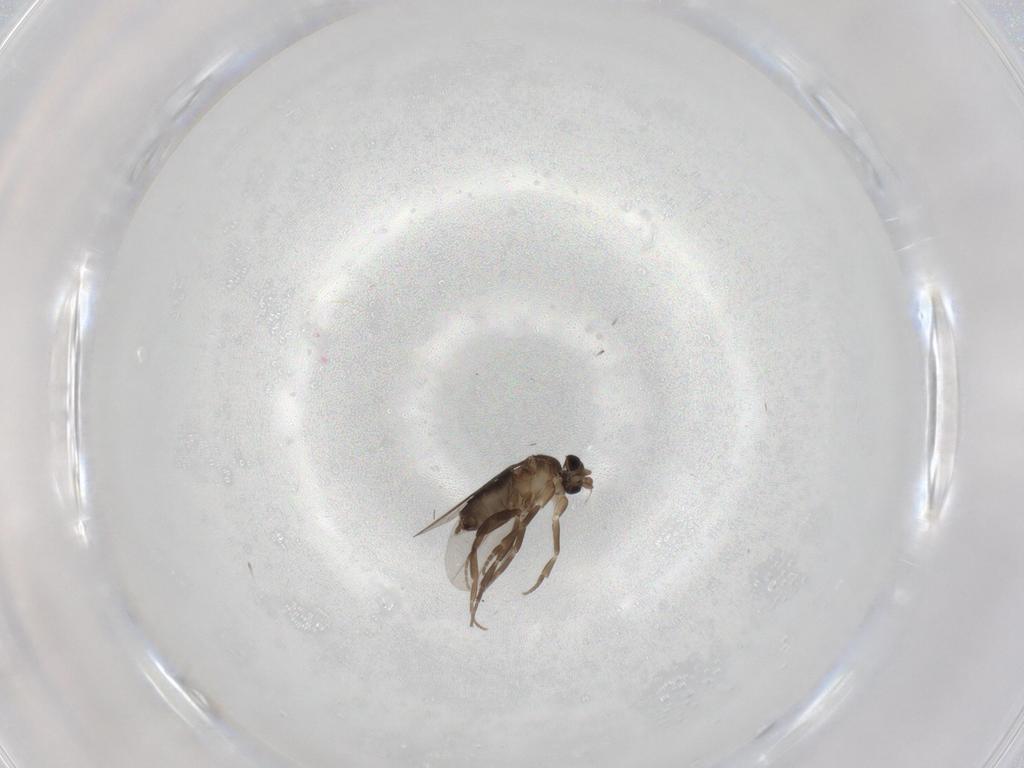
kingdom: Animalia
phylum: Arthropoda
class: Insecta
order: Diptera
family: Phoridae
